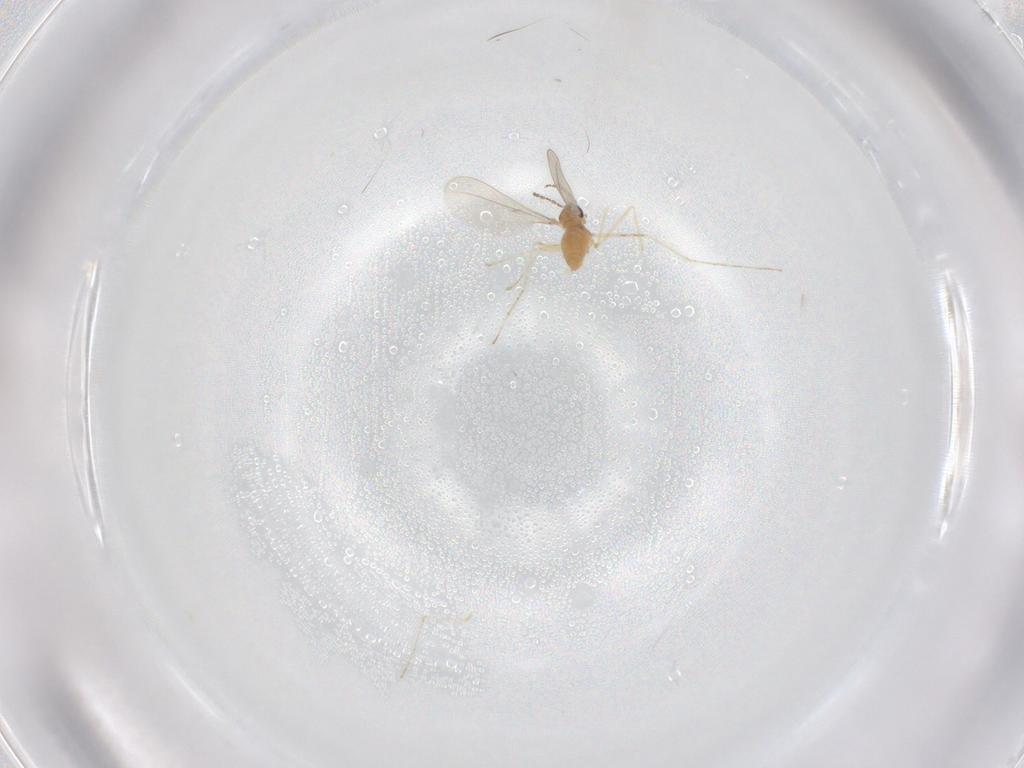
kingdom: Animalia
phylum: Arthropoda
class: Insecta
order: Diptera
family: Cecidomyiidae
